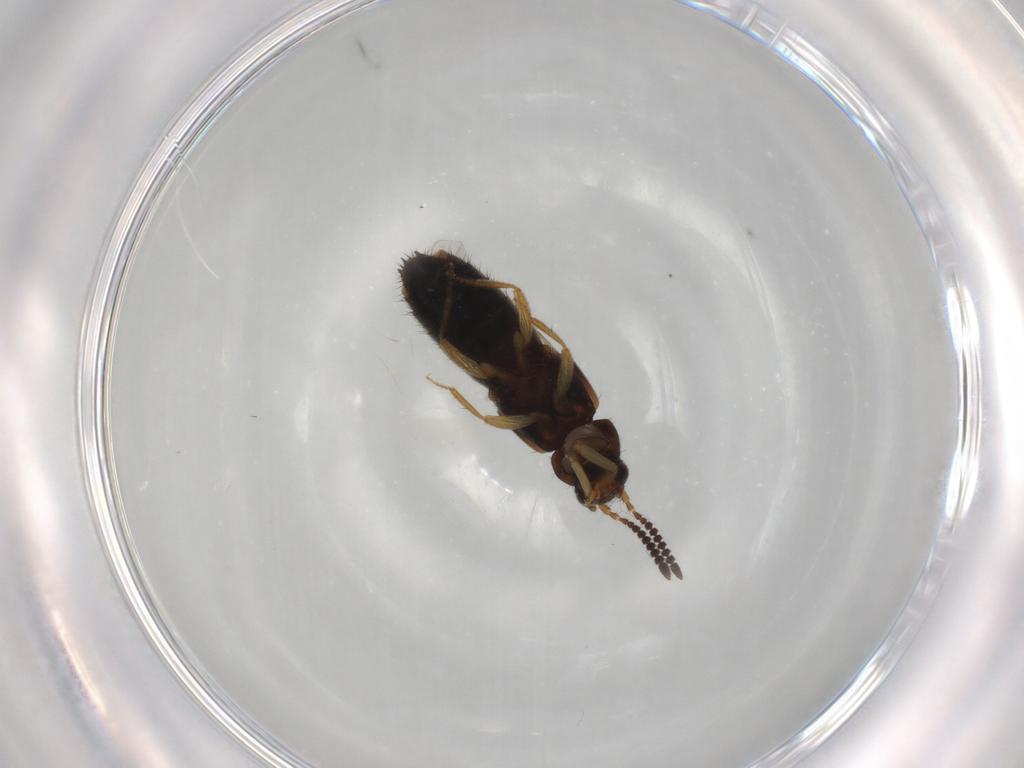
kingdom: Animalia
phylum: Arthropoda
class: Insecta
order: Coleoptera
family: Staphylinidae
